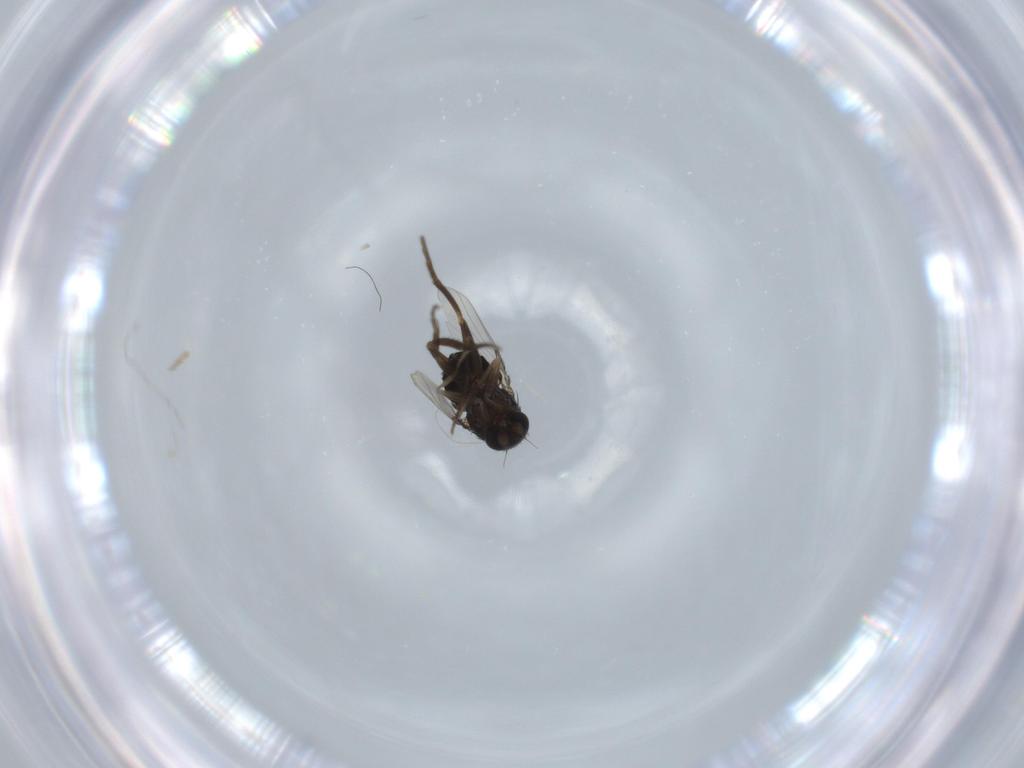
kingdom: Animalia
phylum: Arthropoda
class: Insecta
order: Diptera
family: Phoridae
